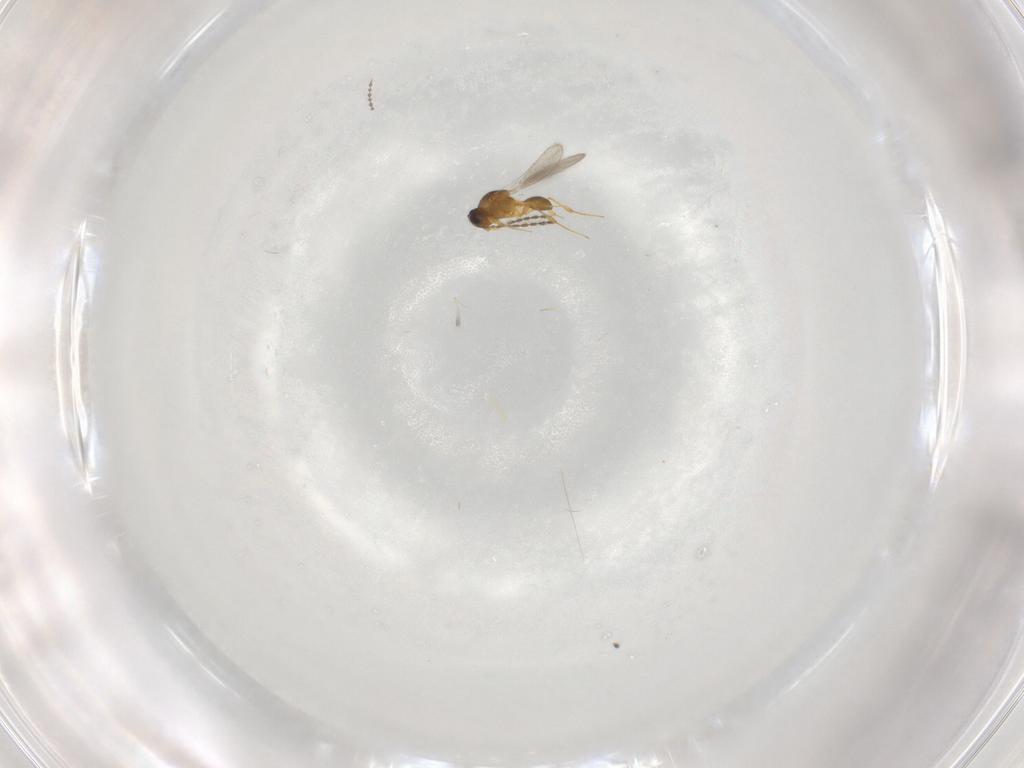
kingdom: Animalia
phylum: Arthropoda
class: Insecta
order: Hymenoptera
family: Platygastridae
